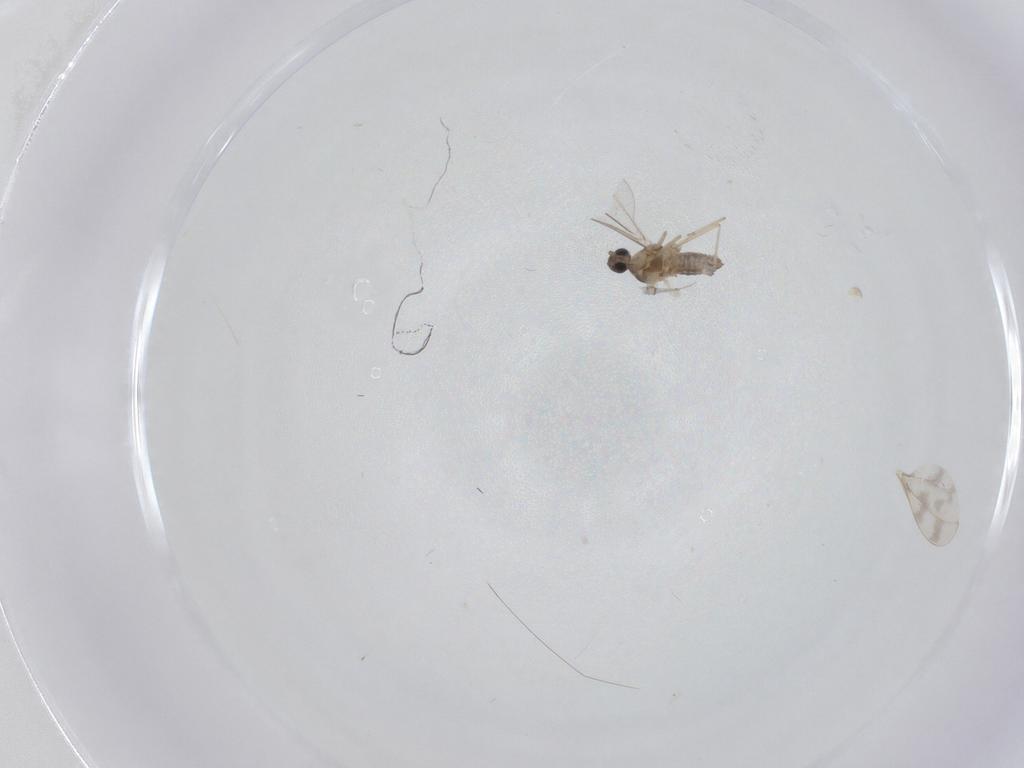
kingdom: Animalia
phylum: Arthropoda
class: Insecta
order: Diptera
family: Cecidomyiidae
